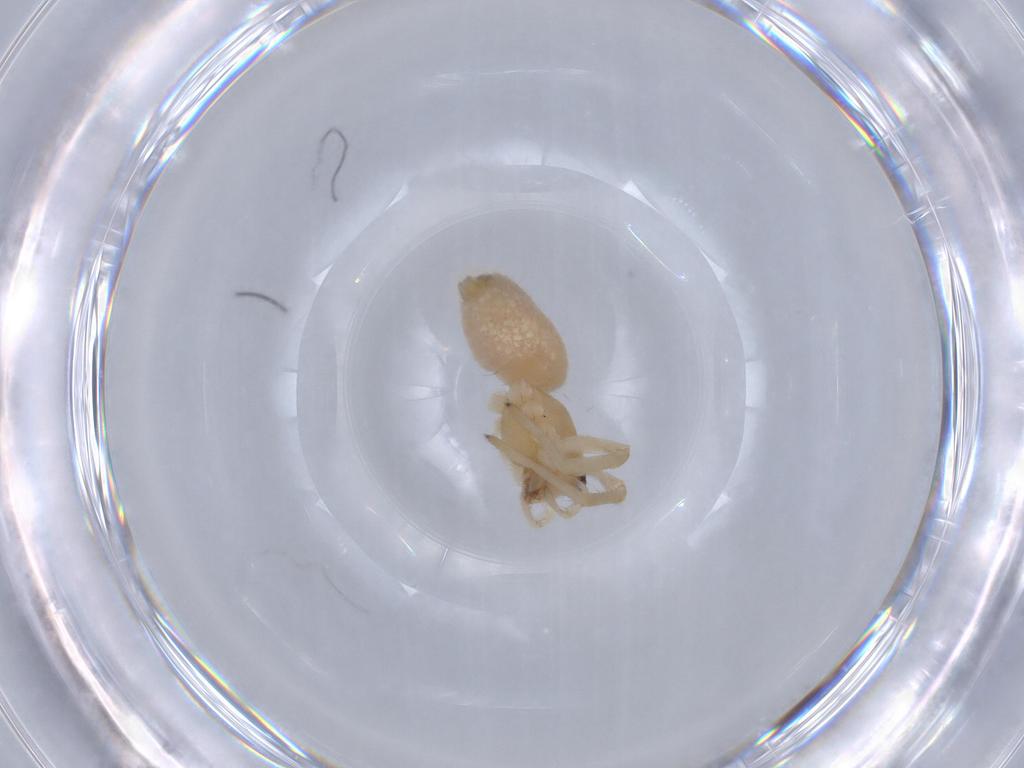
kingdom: Animalia
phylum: Arthropoda
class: Arachnida
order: Araneae
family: Cheiracanthiidae
